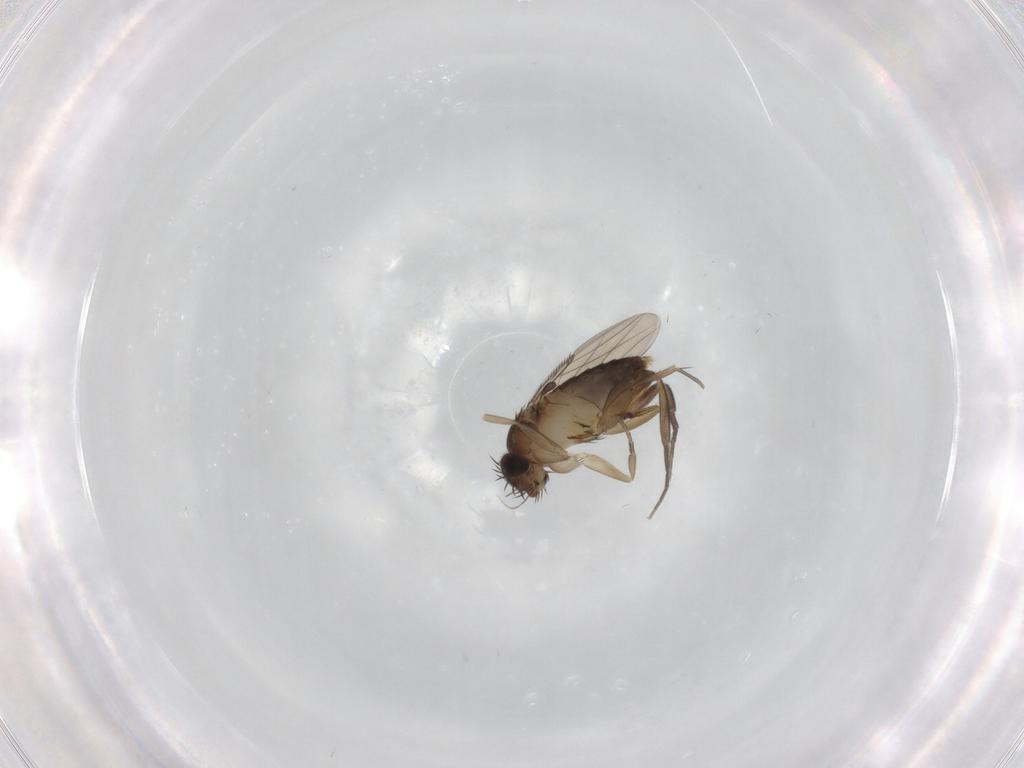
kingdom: Animalia
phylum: Arthropoda
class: Insecta
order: Diptera
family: Phoridae
